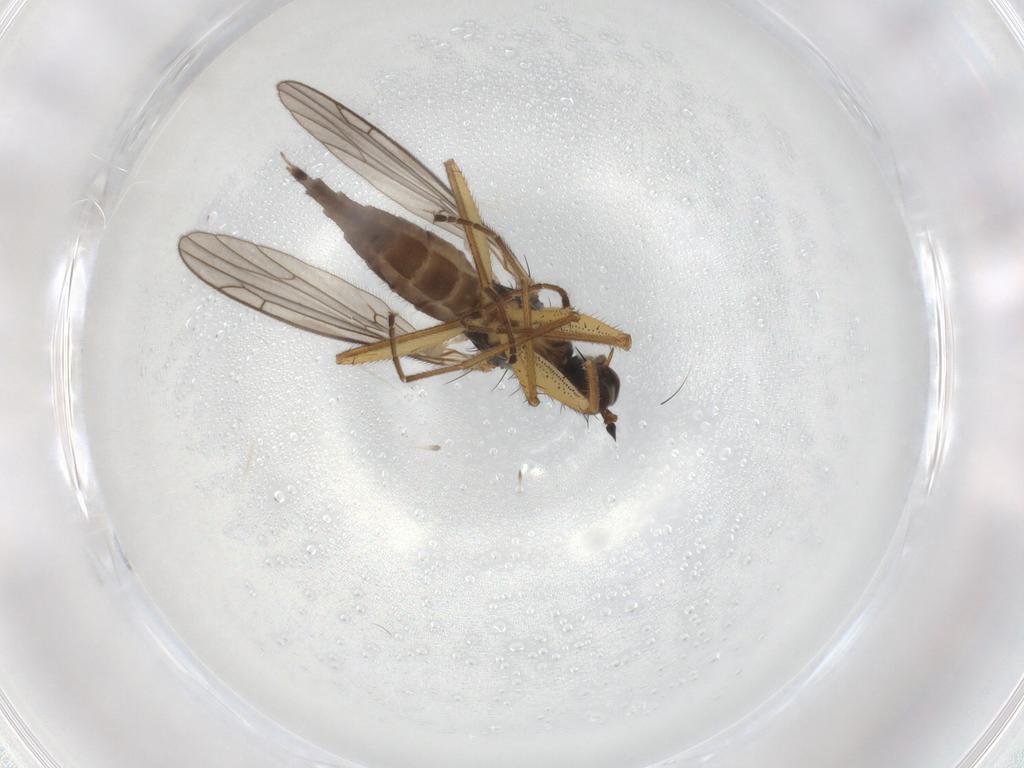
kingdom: Animalia
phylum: Arthropoda
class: Insecta
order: Diptera
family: Empididae
